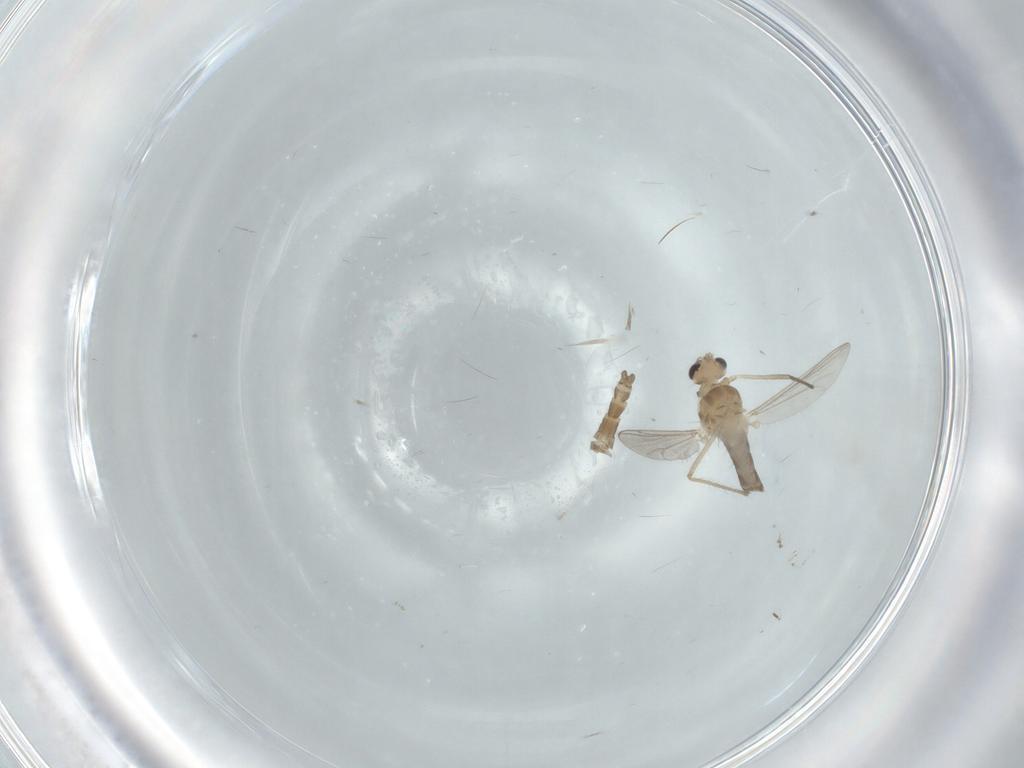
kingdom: Animalia
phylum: Arthropoda
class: Insecta
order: Diptera
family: Chironomidae
